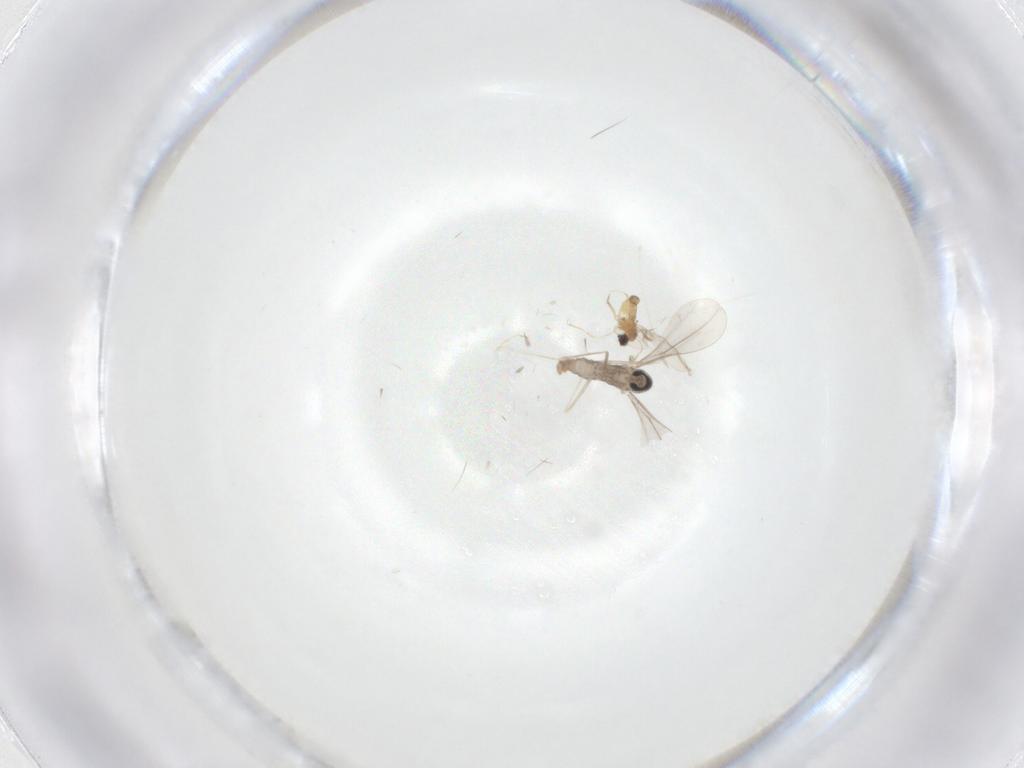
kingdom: Animalia
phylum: Arthropoda
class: Insecta
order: Diptera
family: Cecidomyiidae
